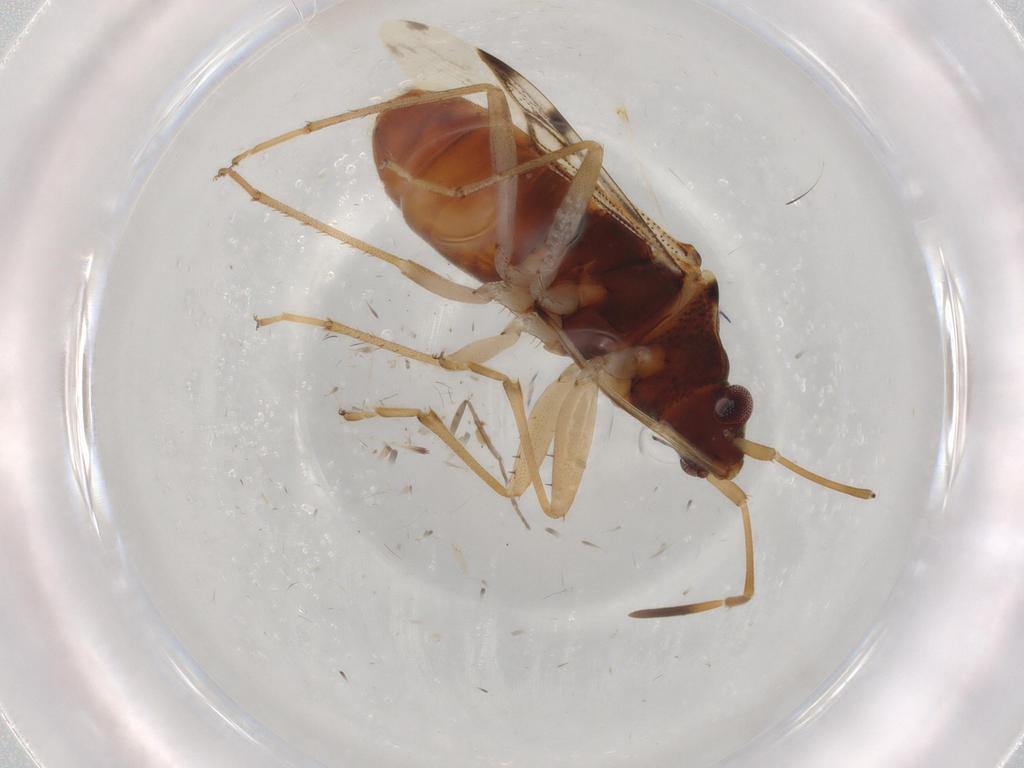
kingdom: Animalia
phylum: Arthropoda
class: Insecta
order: Hemiptera
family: Rhyparochromidae
